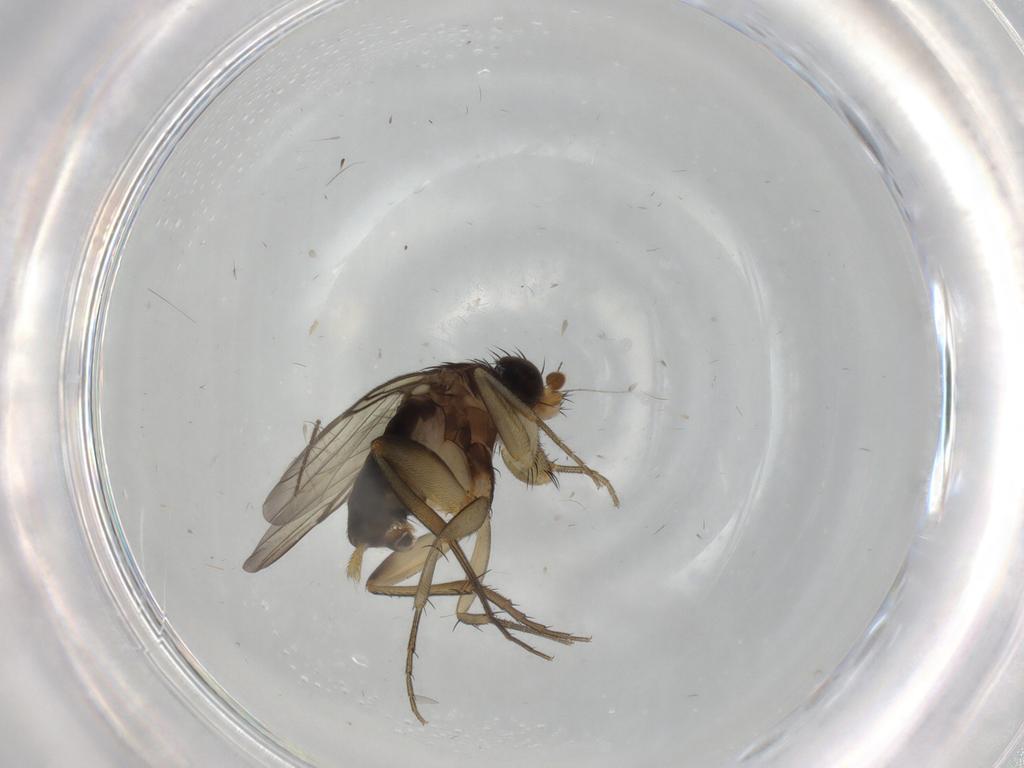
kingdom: Animalia
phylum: Arthropoda
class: Insecta
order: Diptera
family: Phoridae
